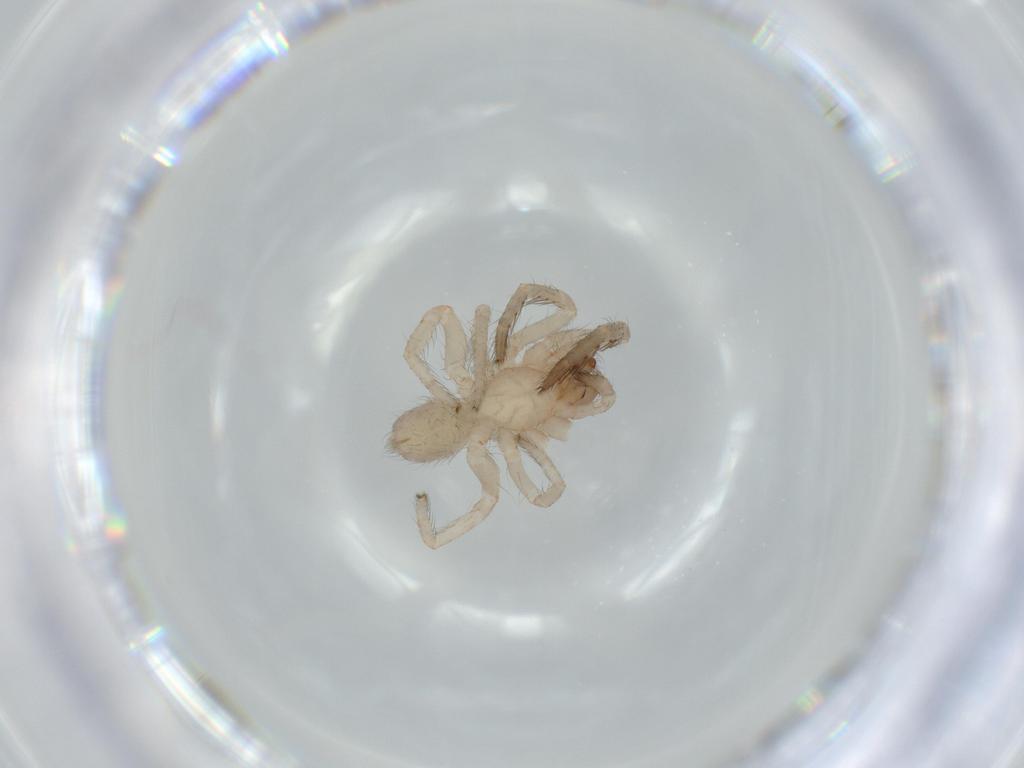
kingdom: Animalia
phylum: Arthropoda
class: Arachnida
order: Araneae
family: Segestriidae
